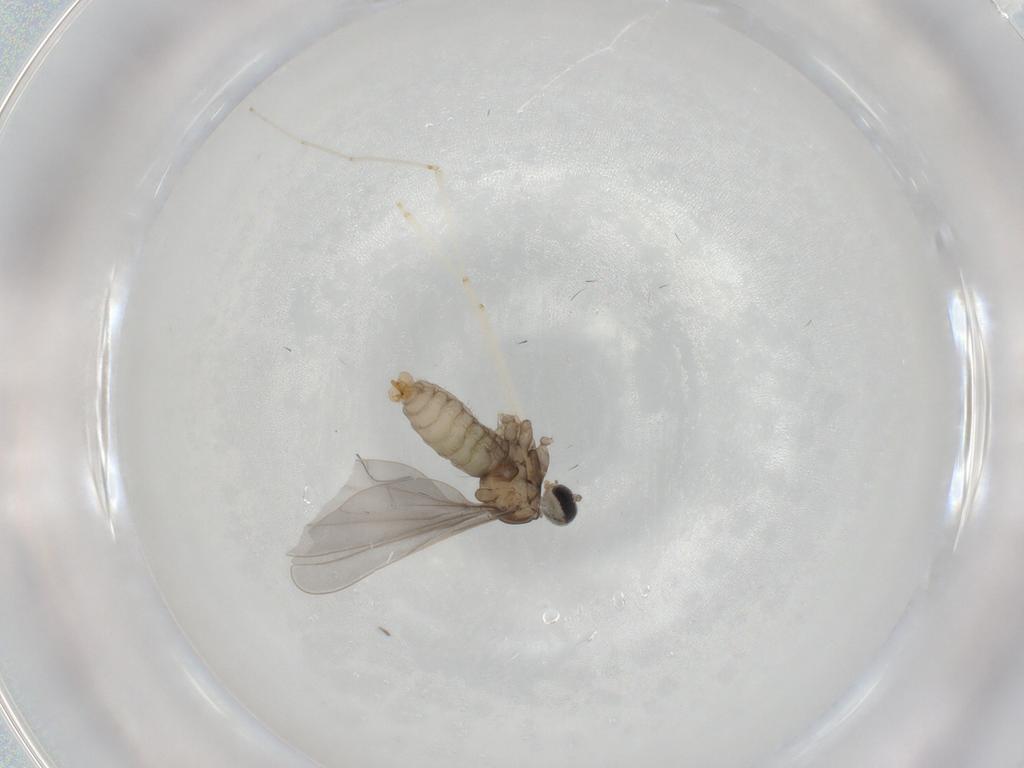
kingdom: Animalia
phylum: Arthropoda
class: Insecta
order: Diptera
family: Cecidomyiidae
